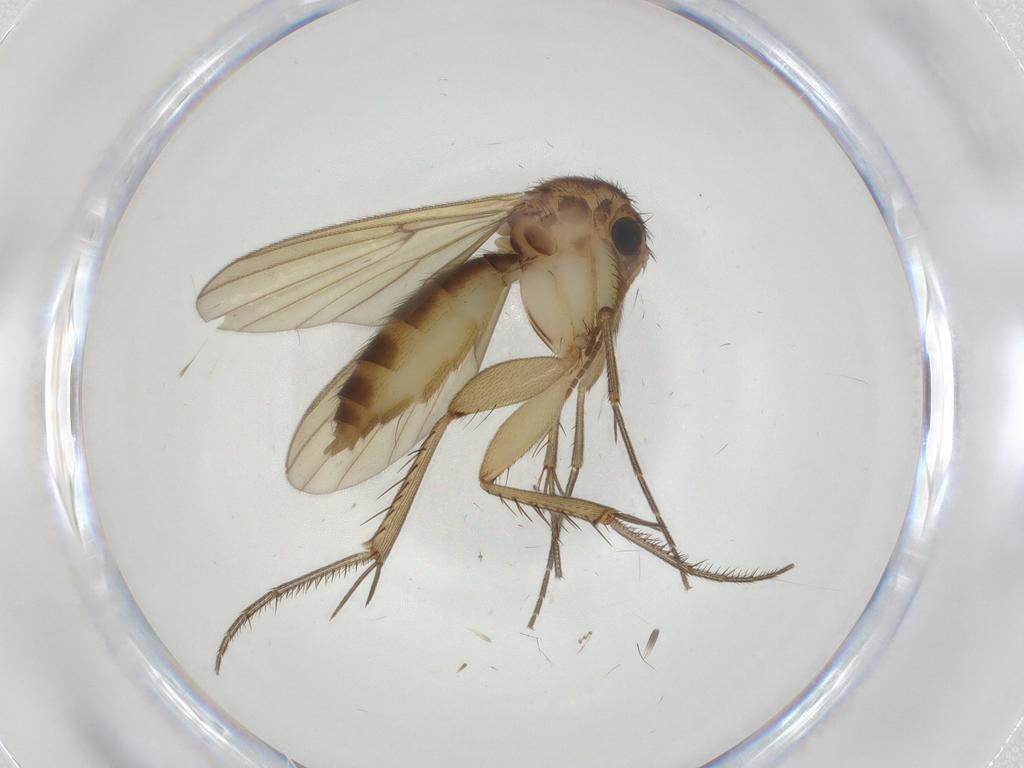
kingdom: Animalia
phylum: Arthropoda
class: Insecta
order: Diptera
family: Mycetophilidae
